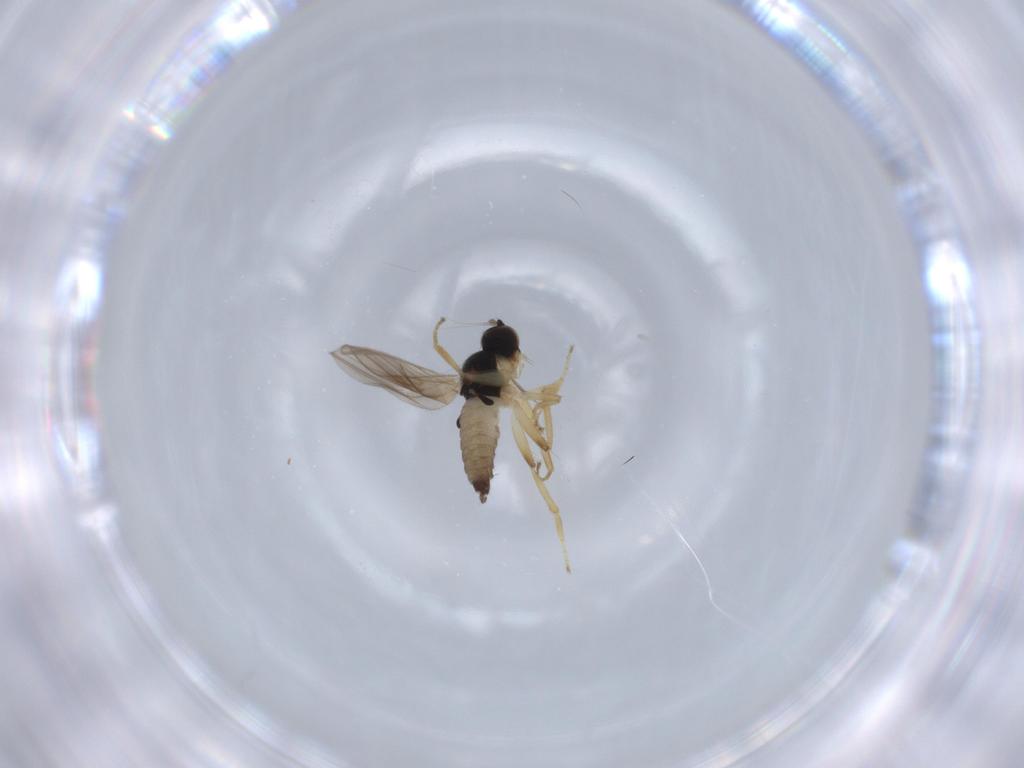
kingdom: Animalia
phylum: Arthropoda
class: Insecta
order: Diptera
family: Hybotidae
